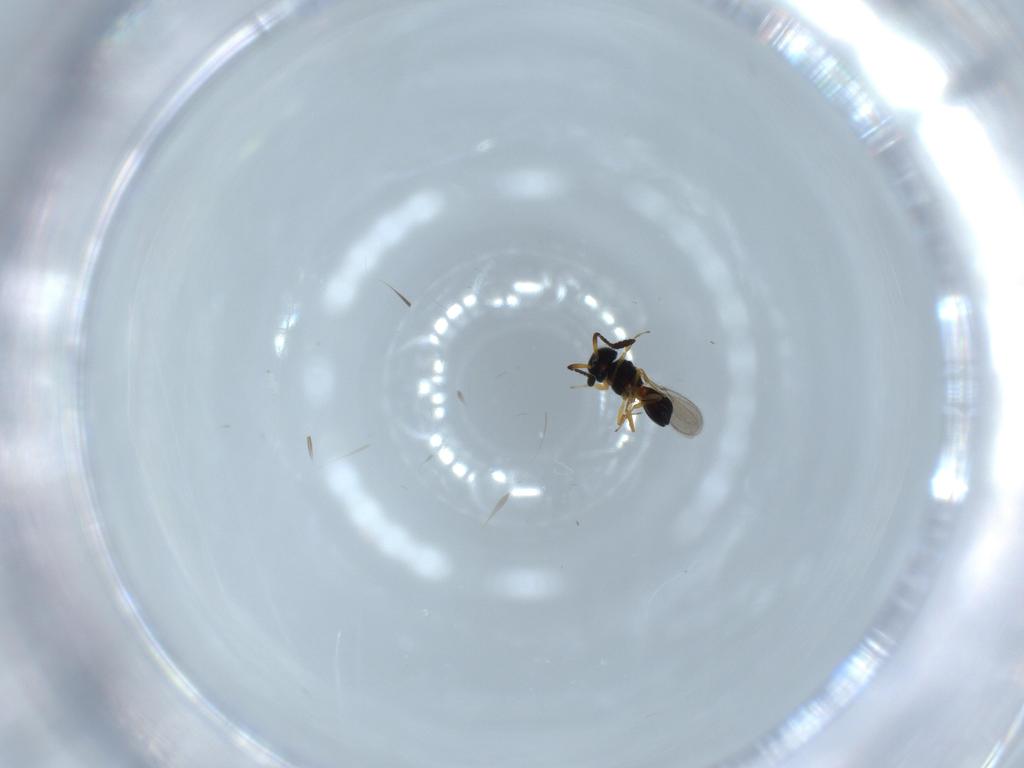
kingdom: Animalia
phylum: Arthropoda
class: Insecta
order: Hymenoptera
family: Scelionidae
